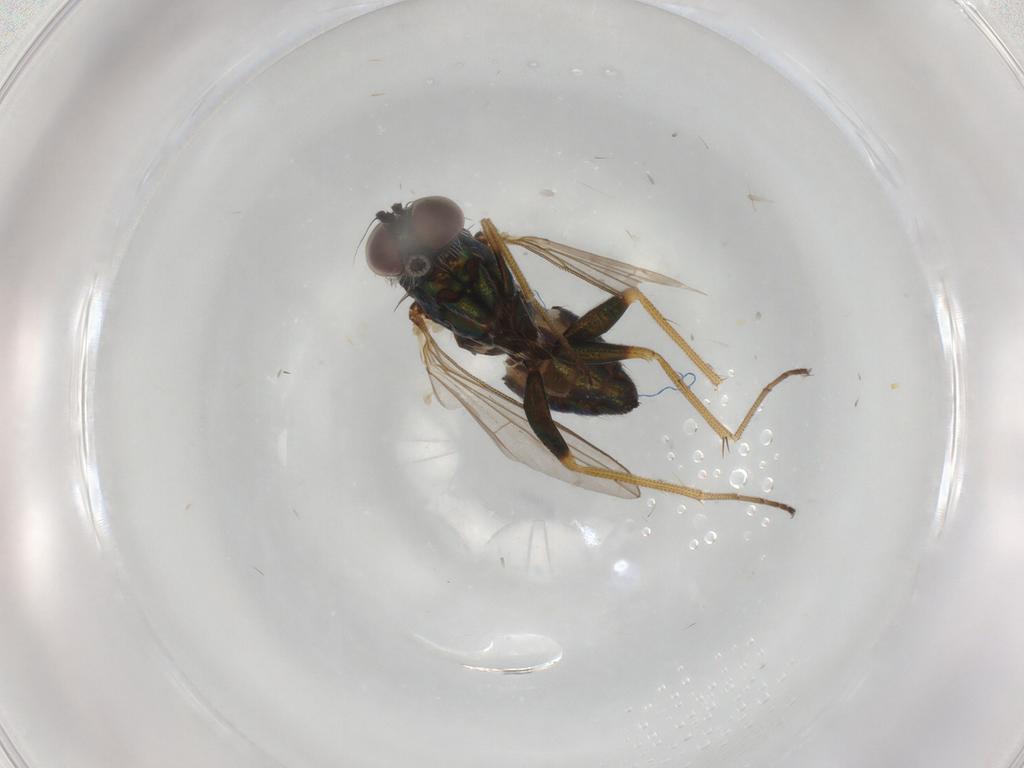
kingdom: Animalia
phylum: Arthropoda
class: Insecta
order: Diptera
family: Dolichopodidae
